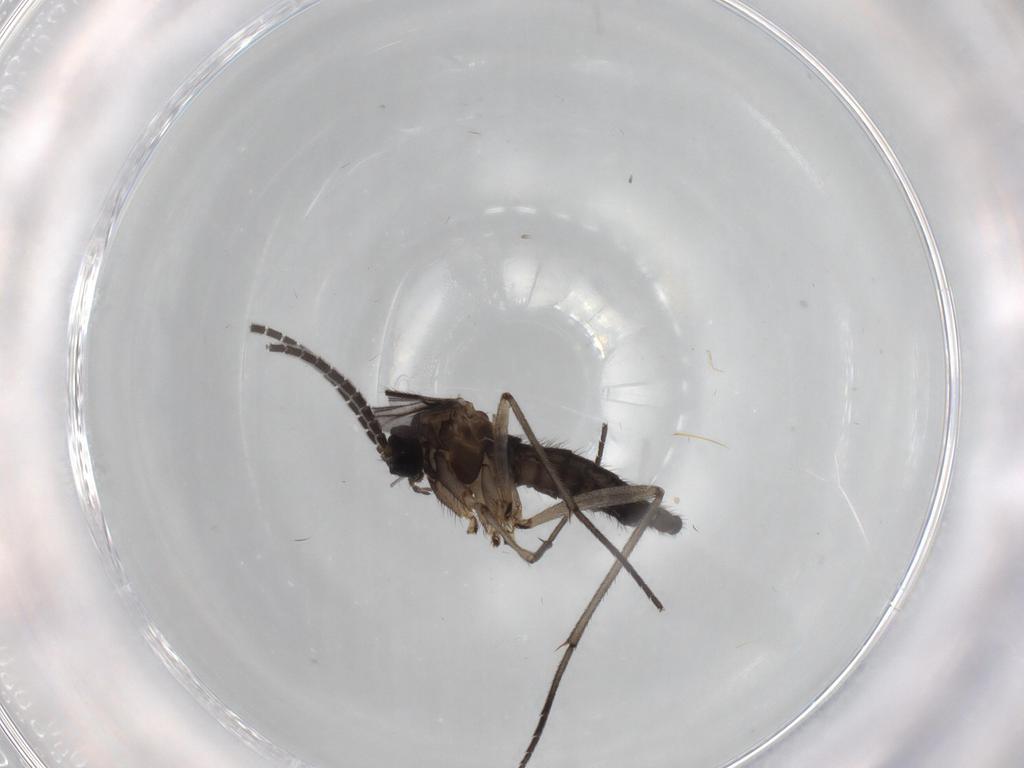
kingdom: Animalia
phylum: Arthropoda
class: Insecta
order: Diptera
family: Sciaridae
